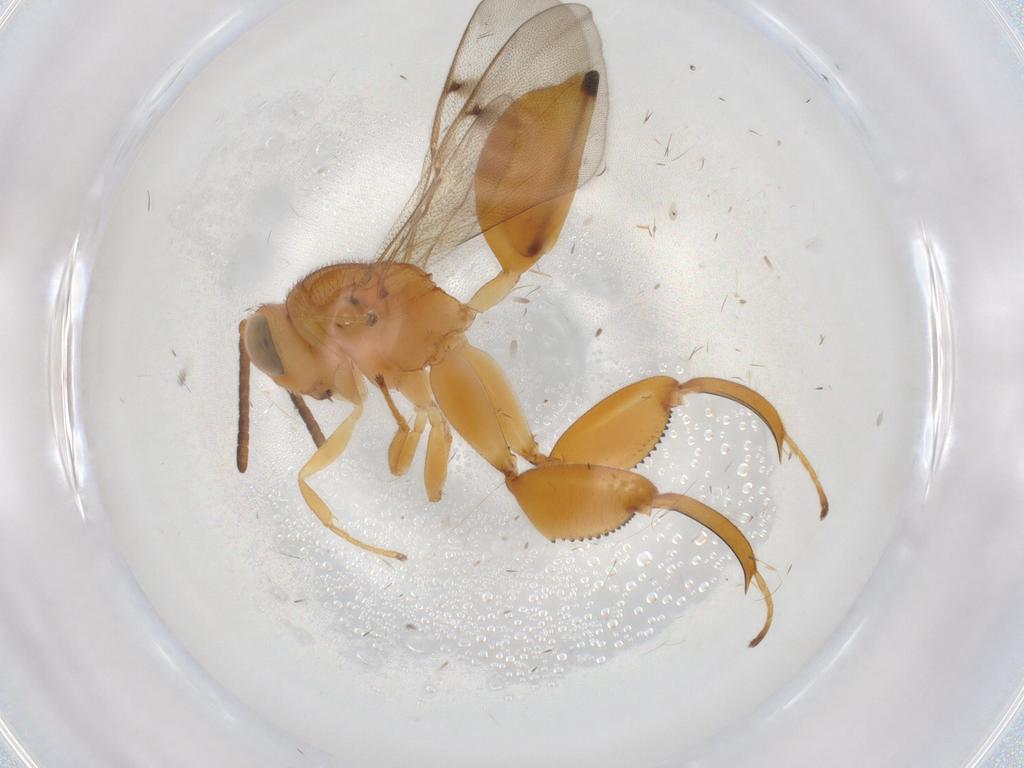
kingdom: Animalia
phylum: Arthropoda
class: Insecta
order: Hymenoptera
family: Chalcididae
